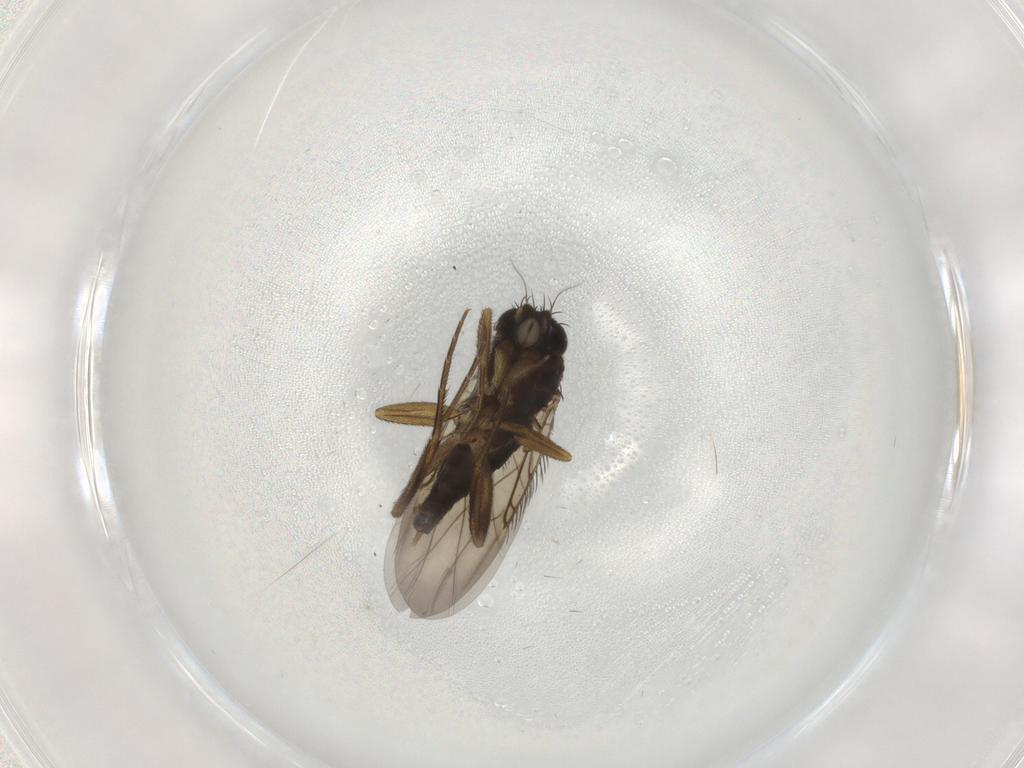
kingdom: Animalia
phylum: Arthropoda
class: Insecta
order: Diptera
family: Phoridae
